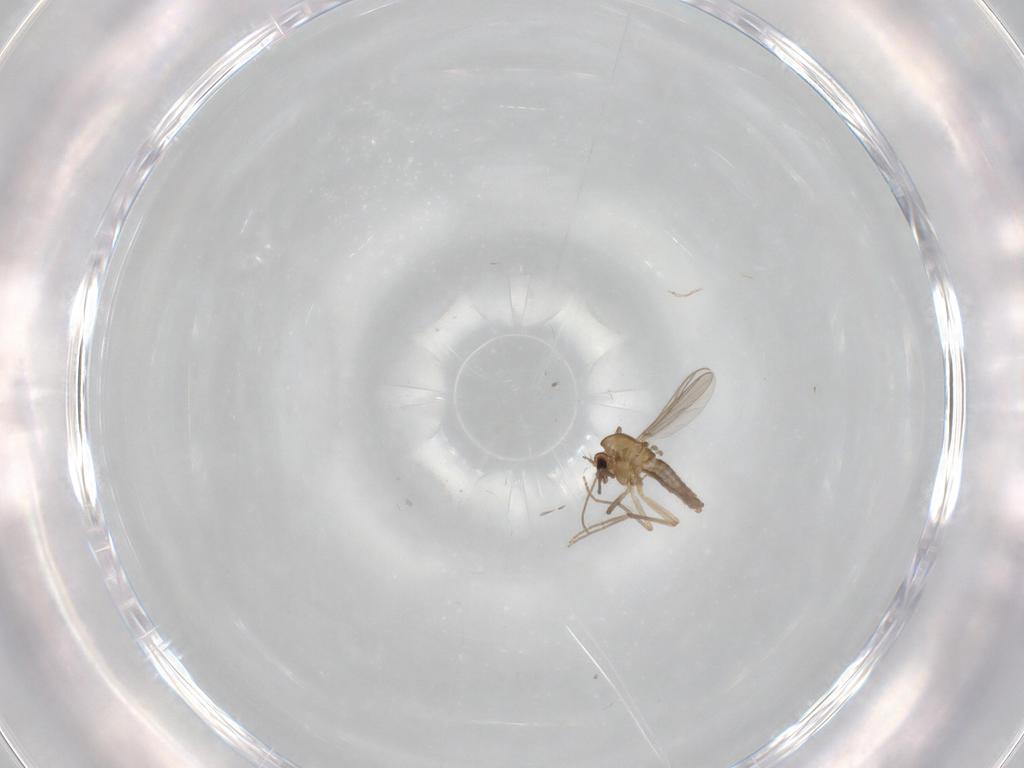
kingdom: Animalia
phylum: Arthropoda
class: Insecta
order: Diptera
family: Chironomidae
